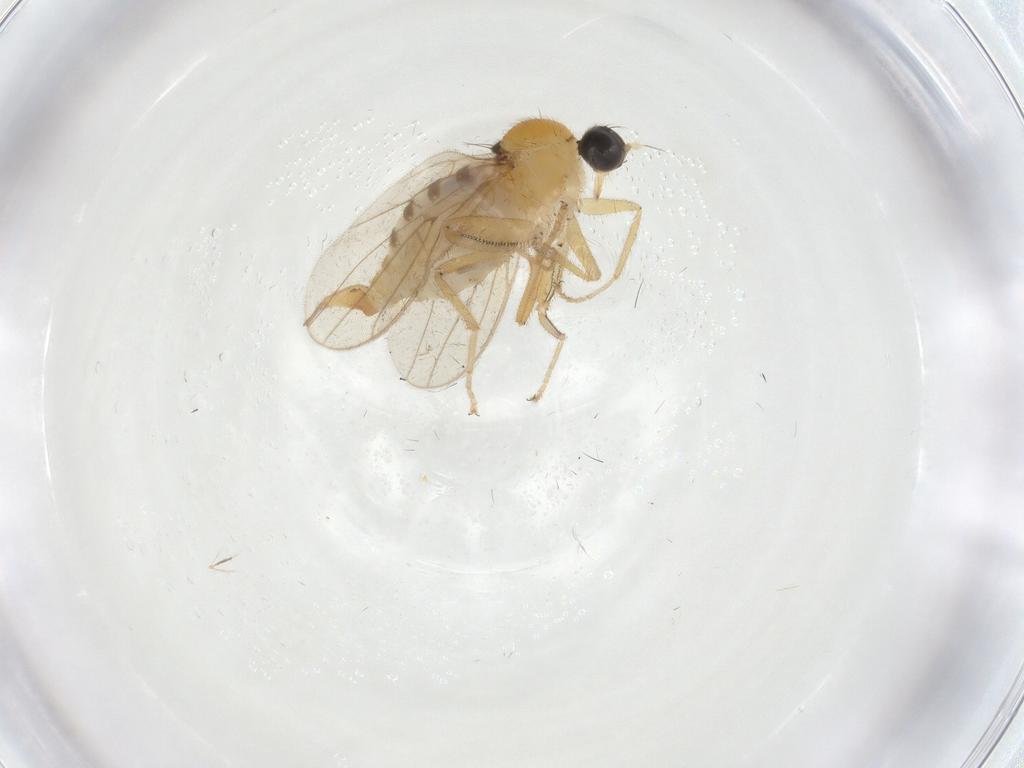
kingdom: Animalia
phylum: Arthropoda
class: Insecta
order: Diptera
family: Hybotidae
